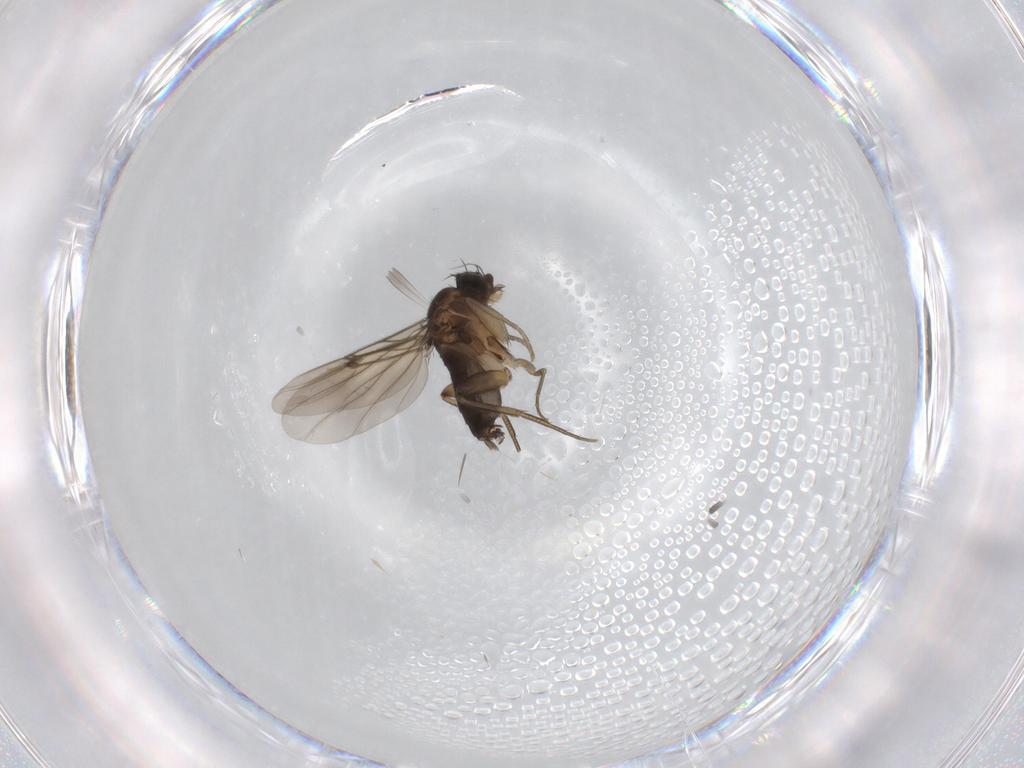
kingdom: Animalia
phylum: Arthropoda
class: Insecta
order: Diptera
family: Cecidomyiidae
